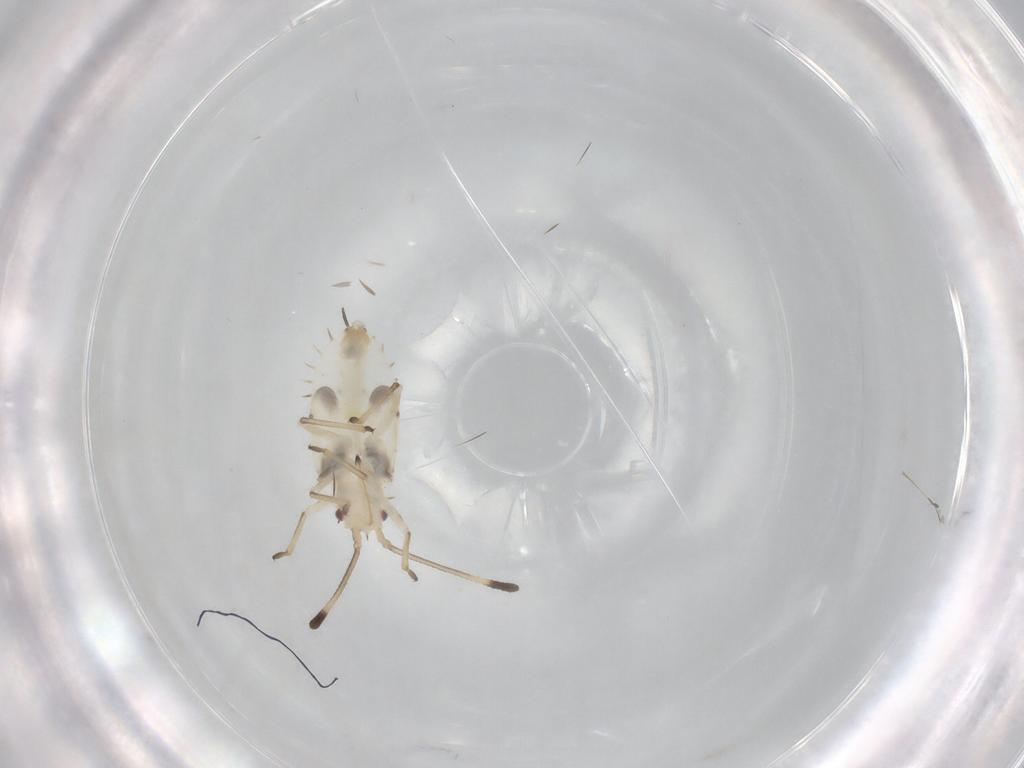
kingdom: Animalia
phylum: Arthropoda
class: Insecta
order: Hemiptera
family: Tingidae
